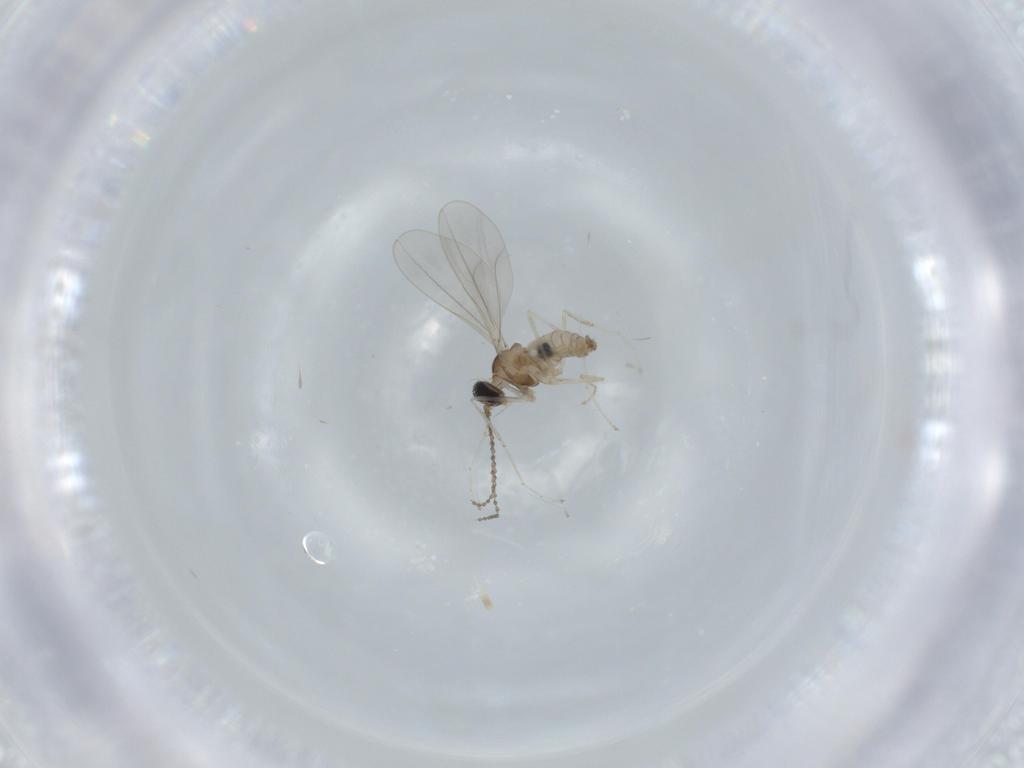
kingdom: Animalia
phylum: Arthropoda
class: Insecta
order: Diptera
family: Cecidomyiidae
